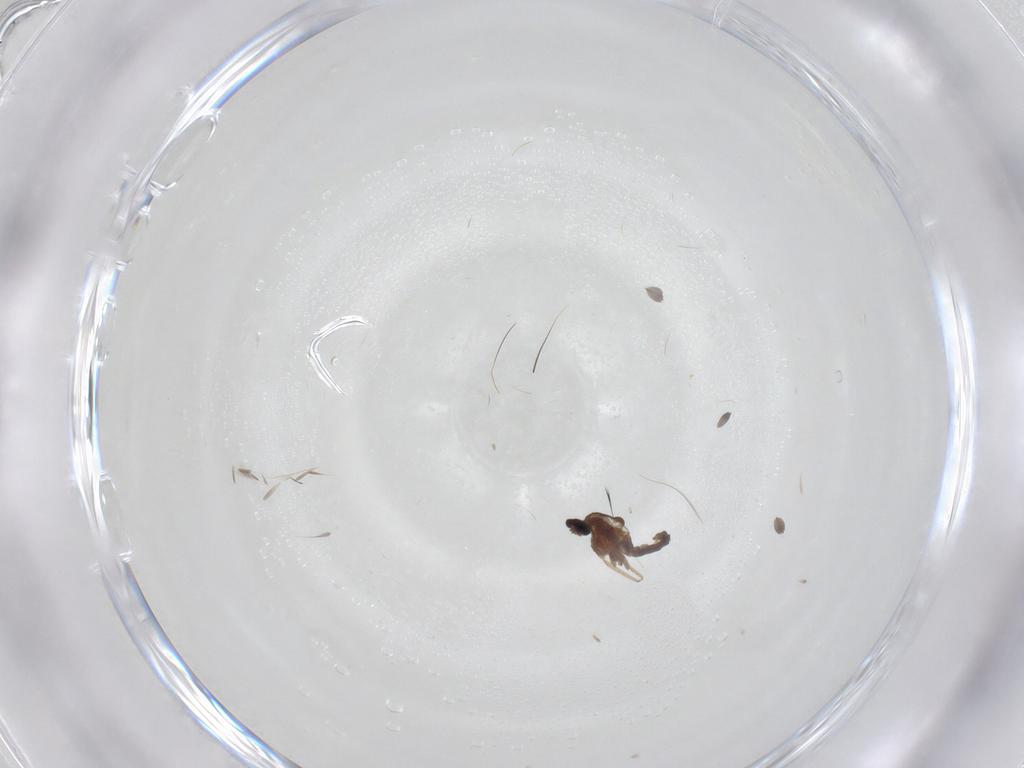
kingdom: Animalia
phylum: Arthropoda
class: Insecta
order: Diptera
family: Cecidomyiidae
